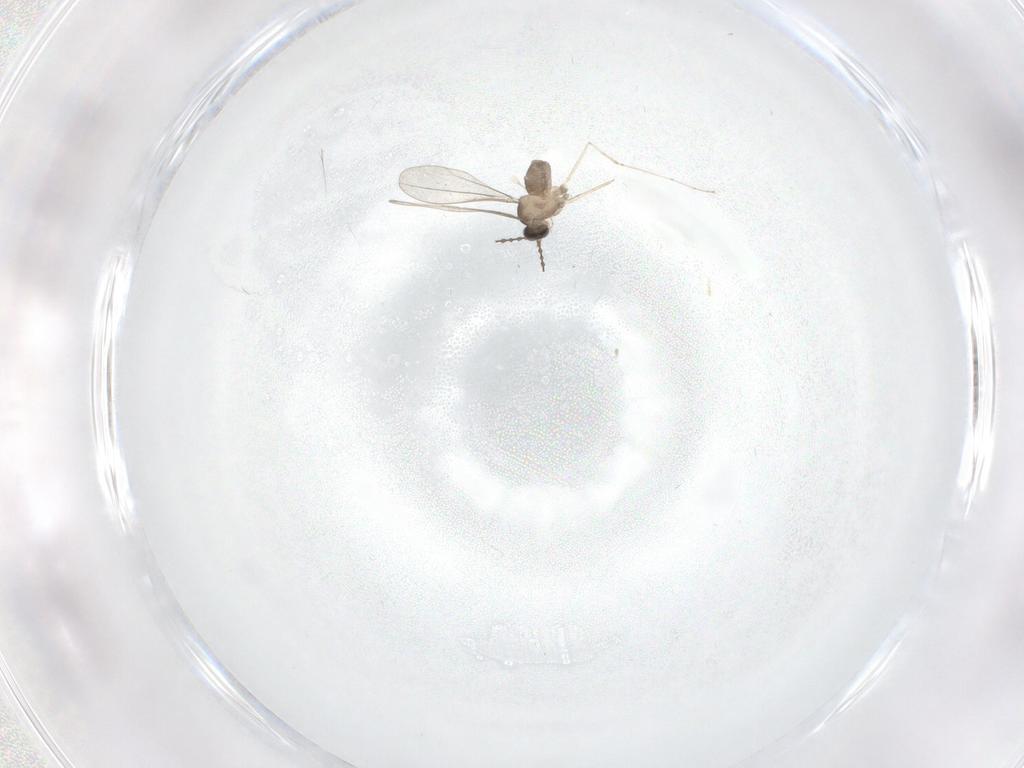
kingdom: Animalia
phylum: Arthropoda
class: Insecta
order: Diptera
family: Cecidomyiidae
